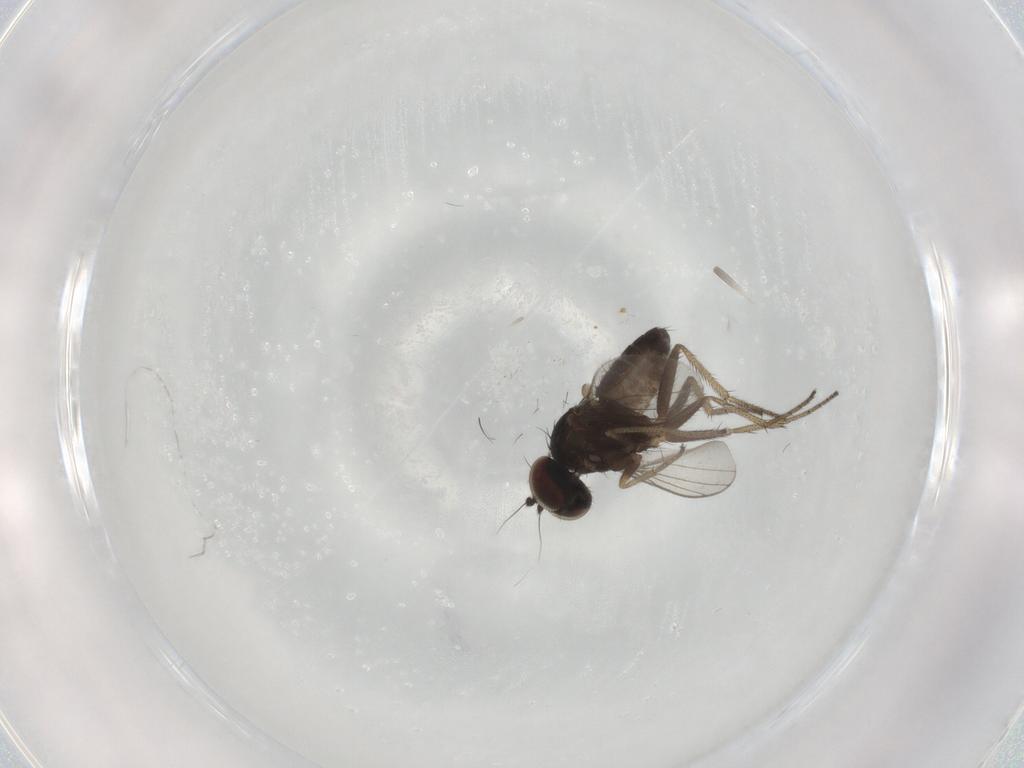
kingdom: Animalia
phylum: Arthropoda
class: Insecta
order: Diptera
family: Dolichopodidae
